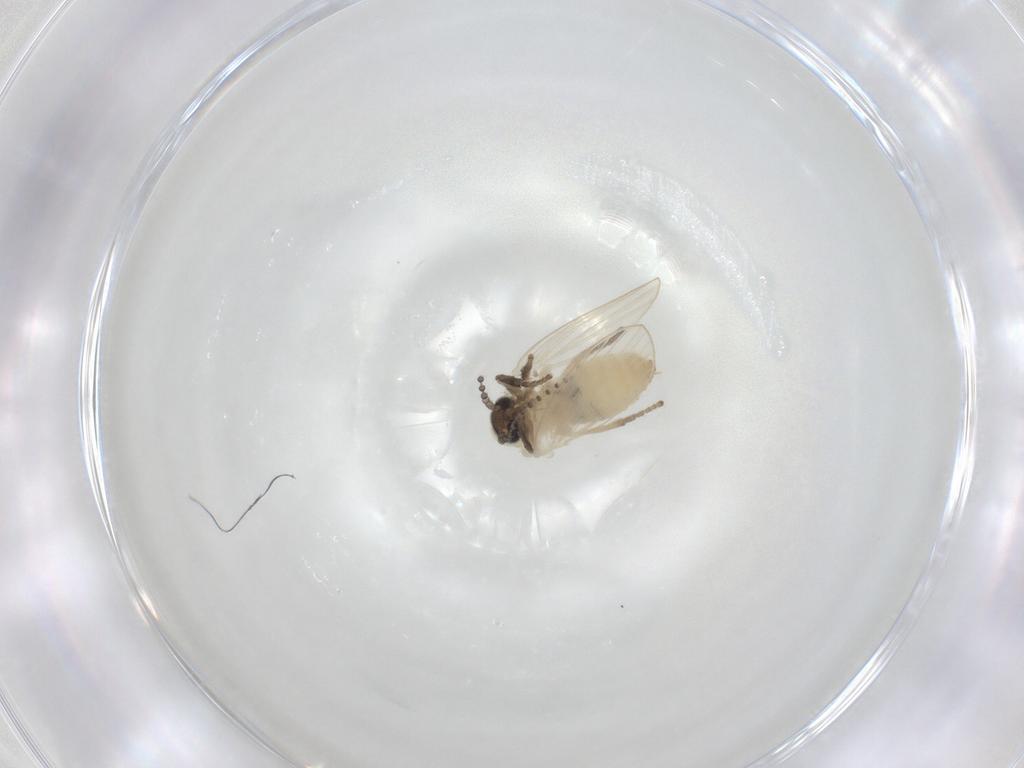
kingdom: Animalia
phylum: Arthropoda
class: Insecta
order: Diptera
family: Psychodidae
